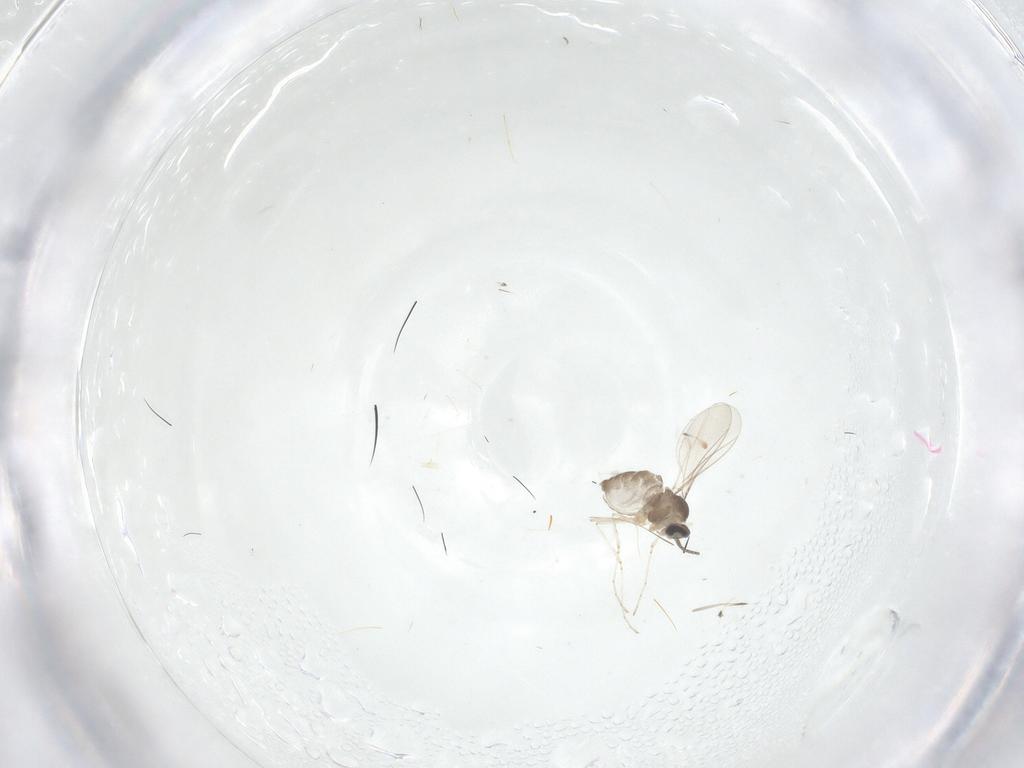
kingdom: Animalia
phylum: Arthropoda
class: Insecta
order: Diptera
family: Cecidomyiidae
